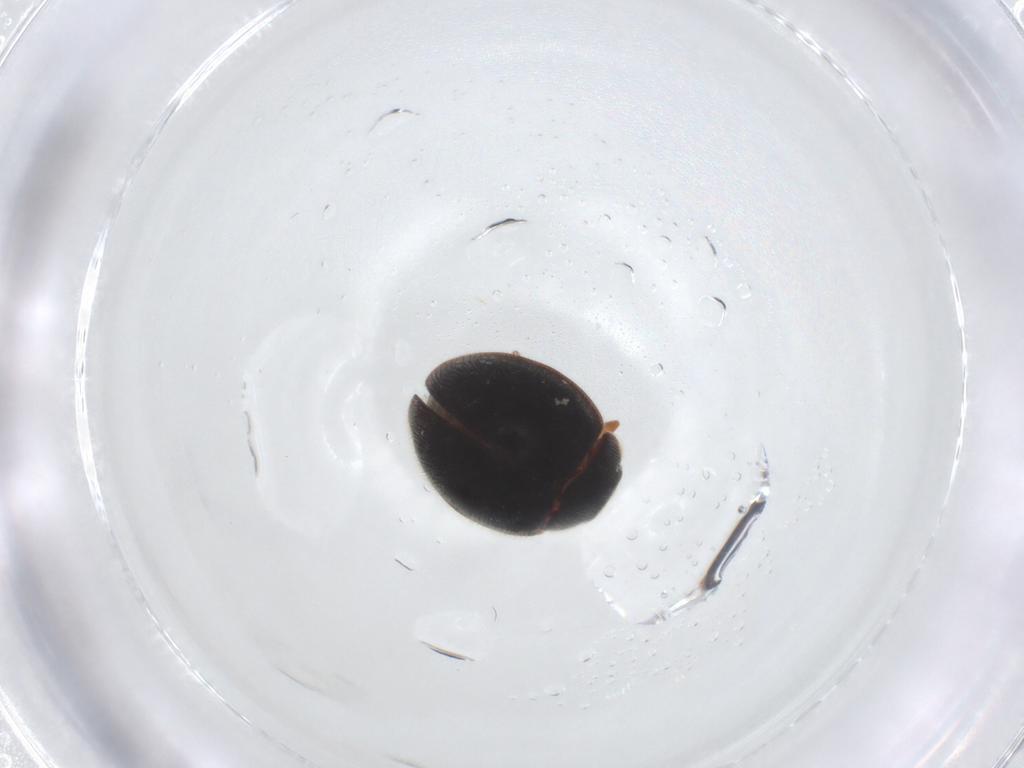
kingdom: Animalia
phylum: Arthropoda
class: Insecta
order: Coleoptera
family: Coccinellidae
